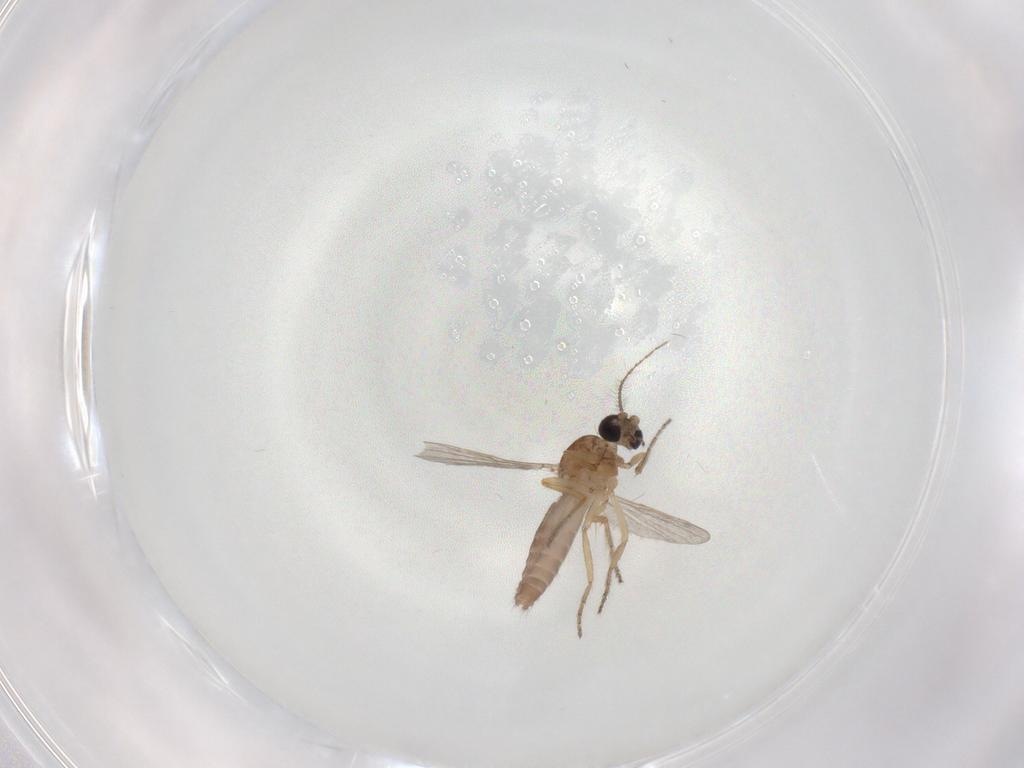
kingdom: Animalia
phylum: Arthropoda
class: Insecta
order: Diptera
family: Ceratopogonidae
